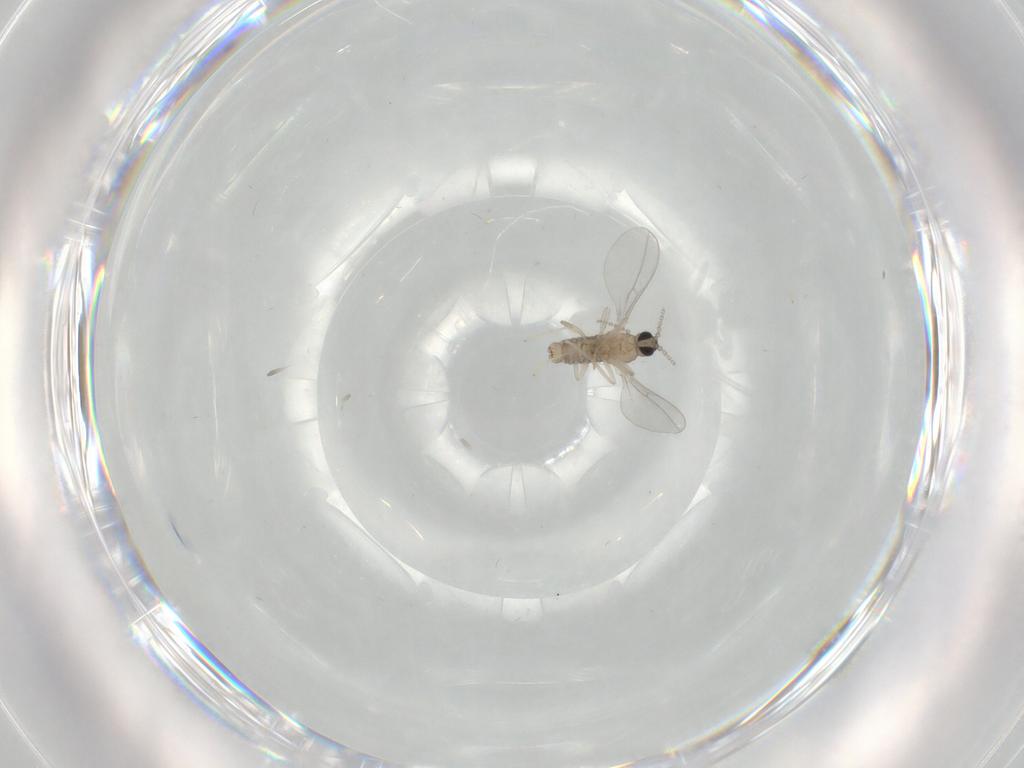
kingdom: Animalia
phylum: Arthropoda
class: Insecta
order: Diptera
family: Cecidomyiidae
